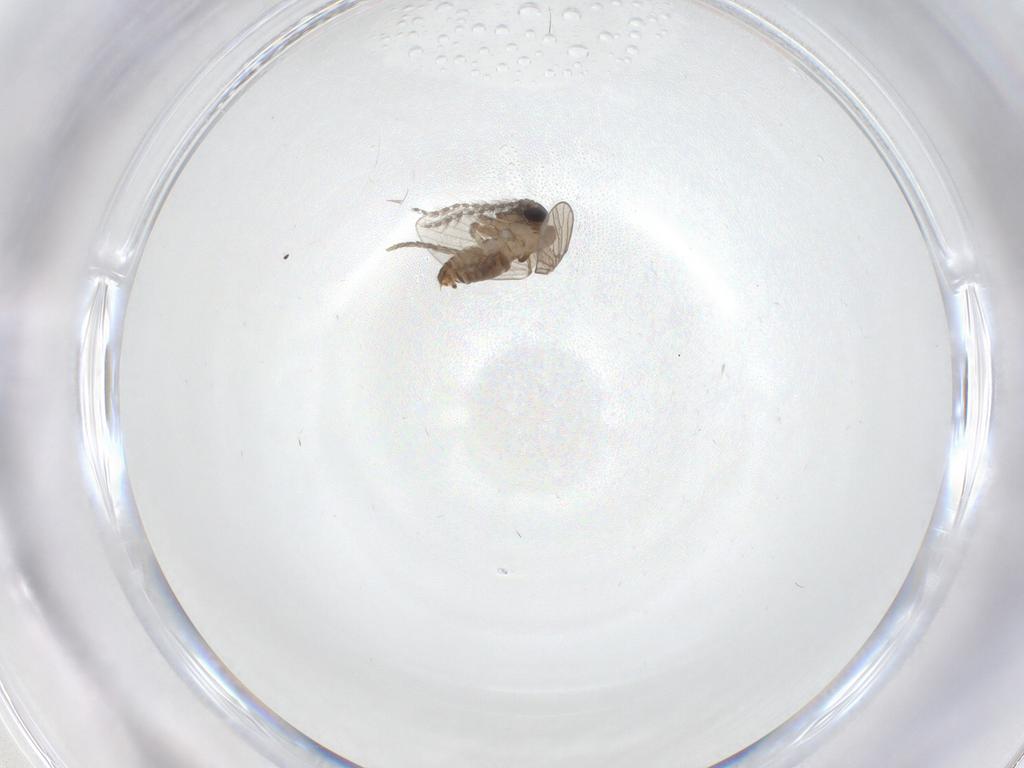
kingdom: Animalia
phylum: Arthropoda
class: Insecta
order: Diptera
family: Psychodidae
